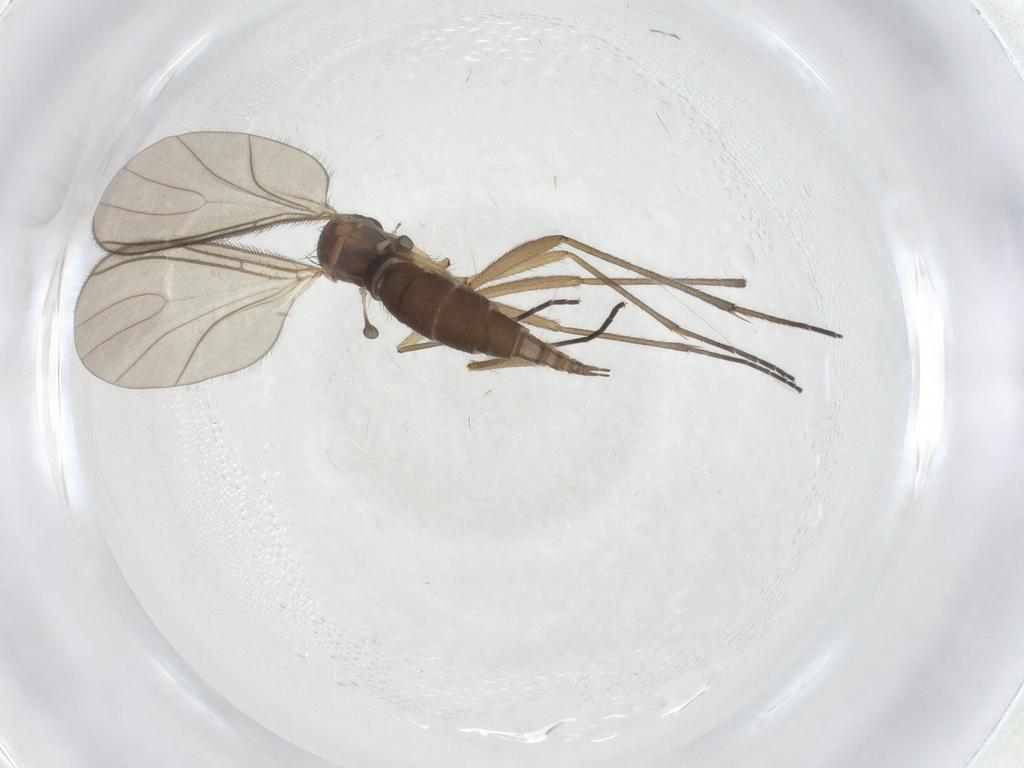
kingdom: Animalia
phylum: Arthropoda
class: Insecta
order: Diptera
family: Sciaridae
